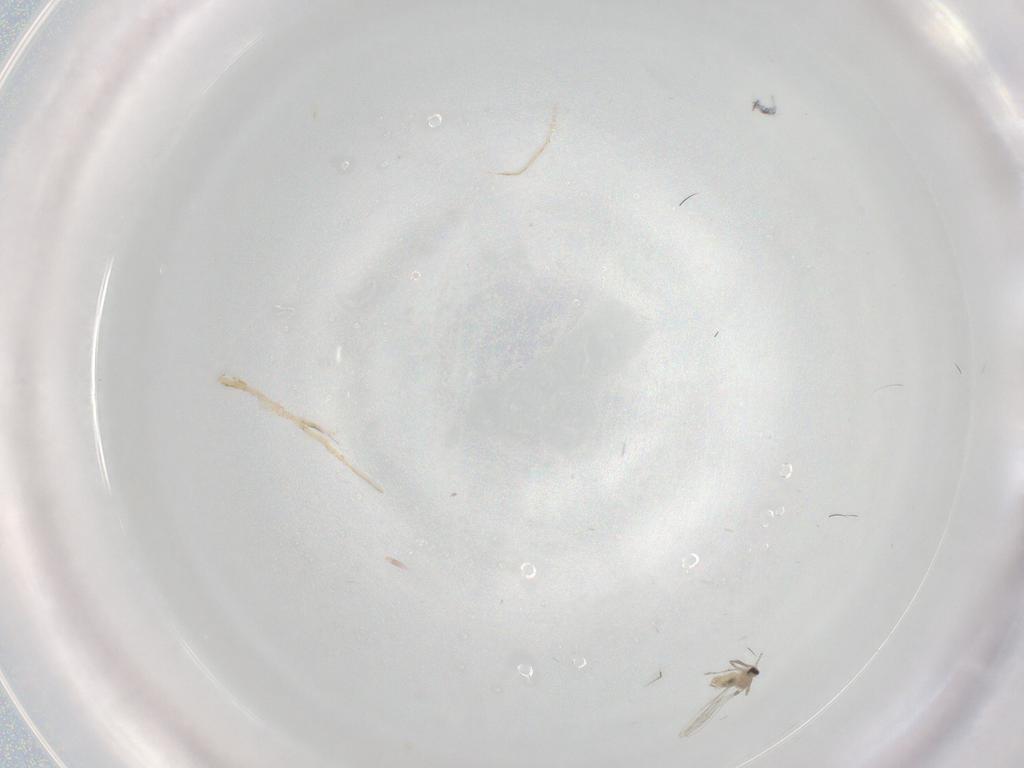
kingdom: Animalia
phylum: Arthropoda
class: Insecta
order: Diptera
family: Cecidomyiidae
